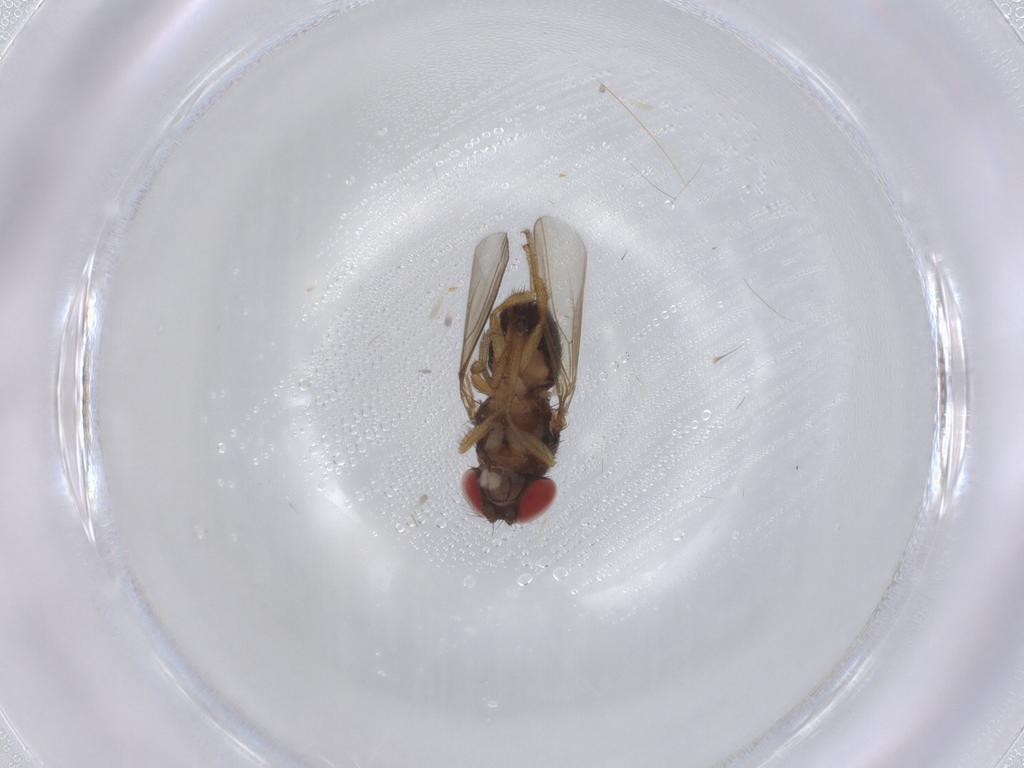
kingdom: Animalia
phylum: Arthropoda
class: Insecta
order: Diptera
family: Drosophilidae
